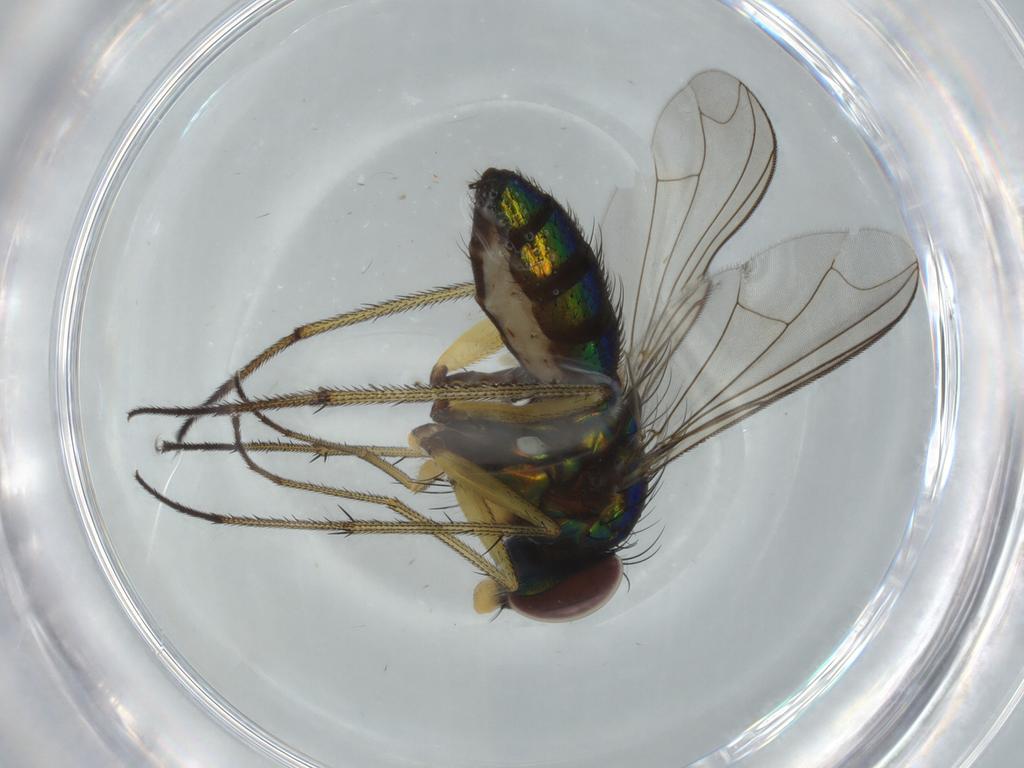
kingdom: Animalia
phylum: Arthropoda
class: Insecta
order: Diptera
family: Dolichopodidae
